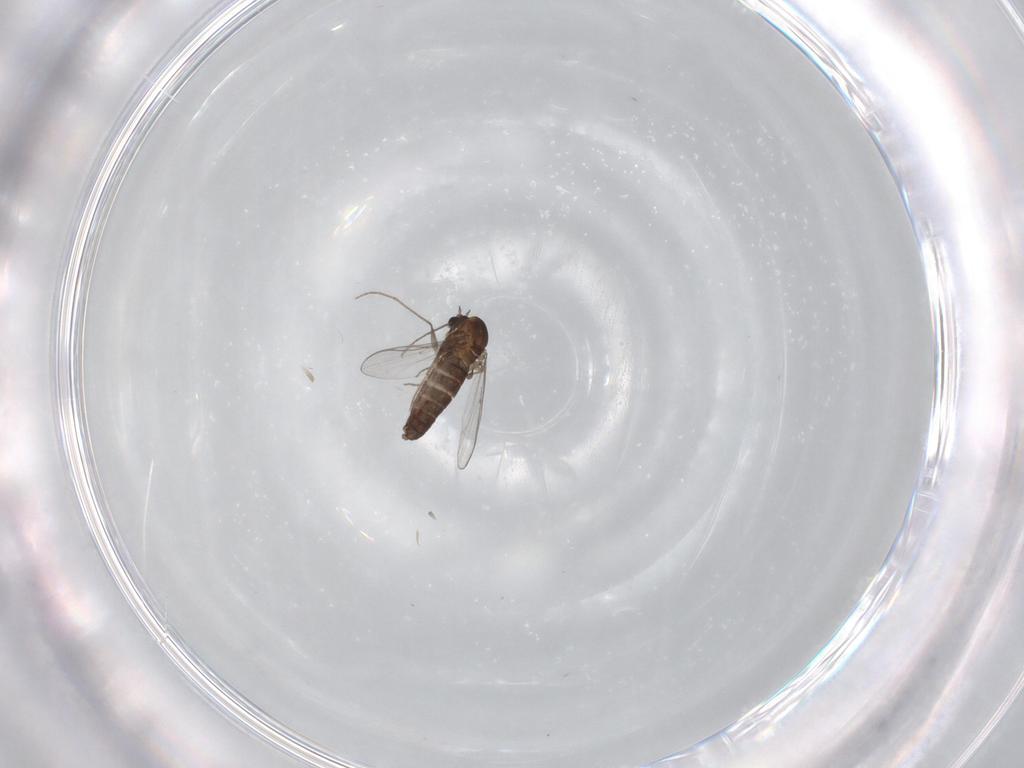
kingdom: Animalia
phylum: Arthropoda
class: Insecta
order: Diptera
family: Chironomidae
